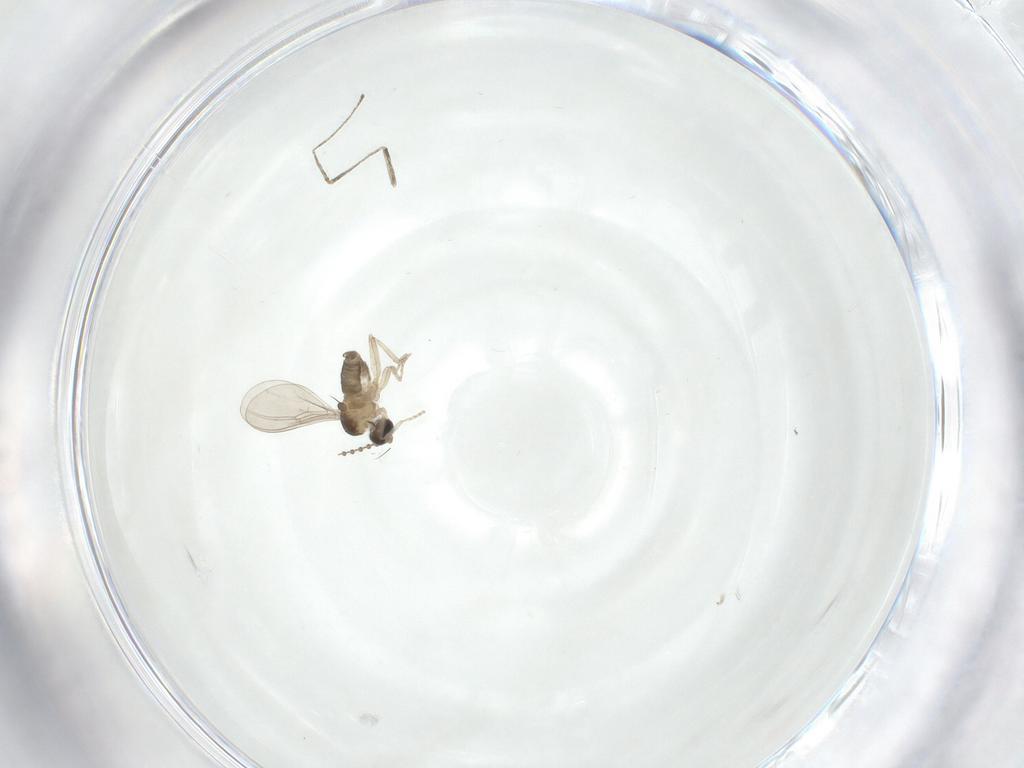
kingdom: Animalia
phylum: Arthropoda
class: Insecta
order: Diptera
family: Cecidomyiidae
